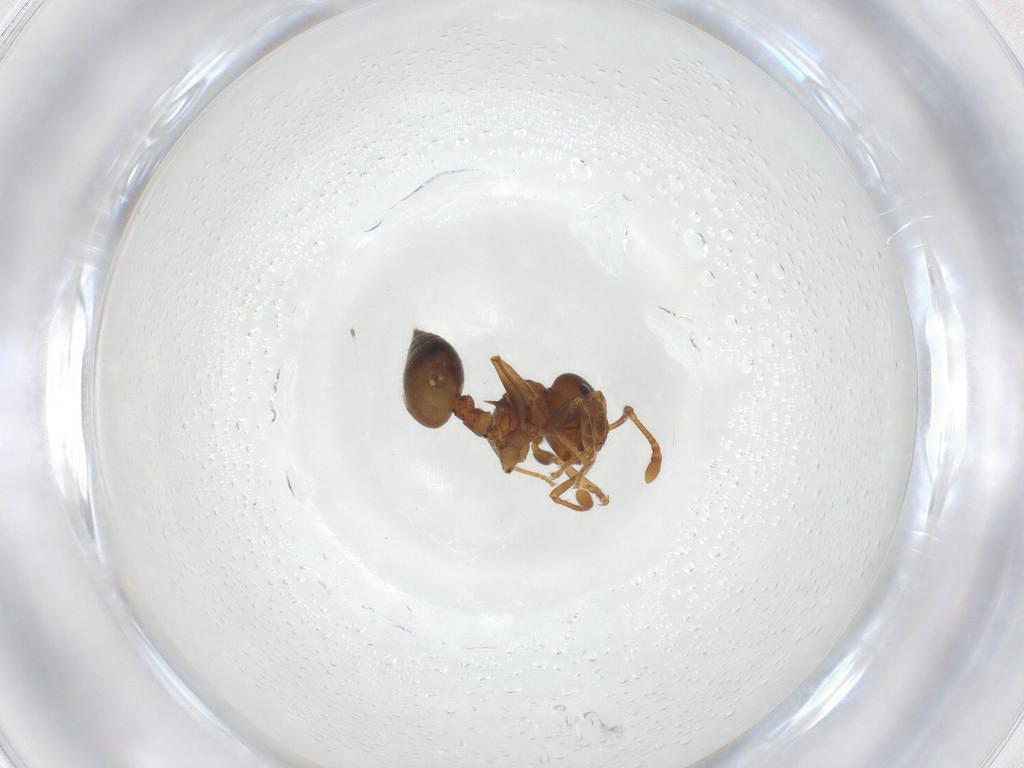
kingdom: Animalia
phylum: Arthropoda
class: Insecta
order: Hymenoptera
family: Formicidae
